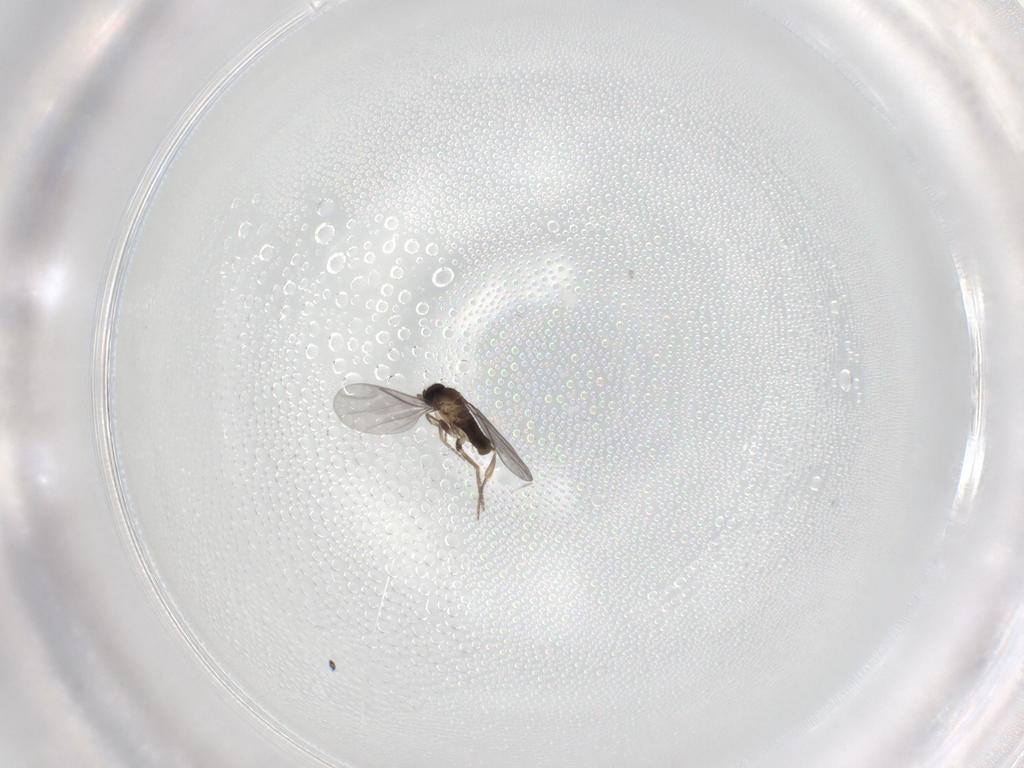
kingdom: Animalia
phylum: Arthropoda
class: Insecta
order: Diptera
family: Phoridae
